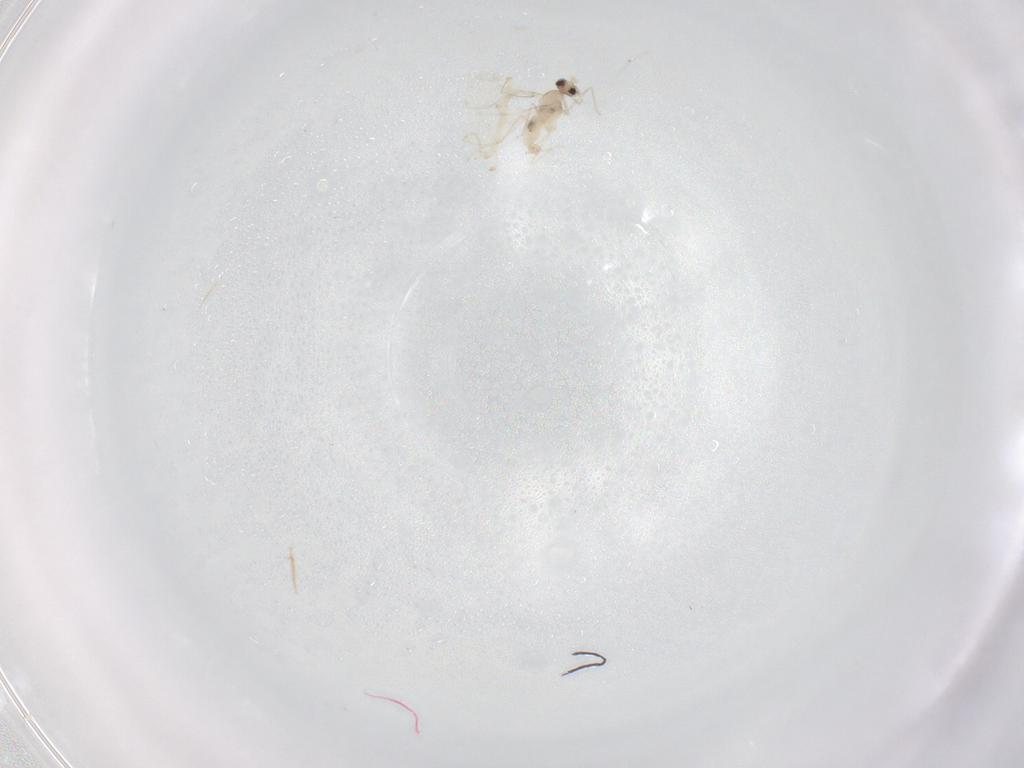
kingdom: Animalia
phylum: Arthropoda
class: Insecta
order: Diptera
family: Cecidomyiidae
